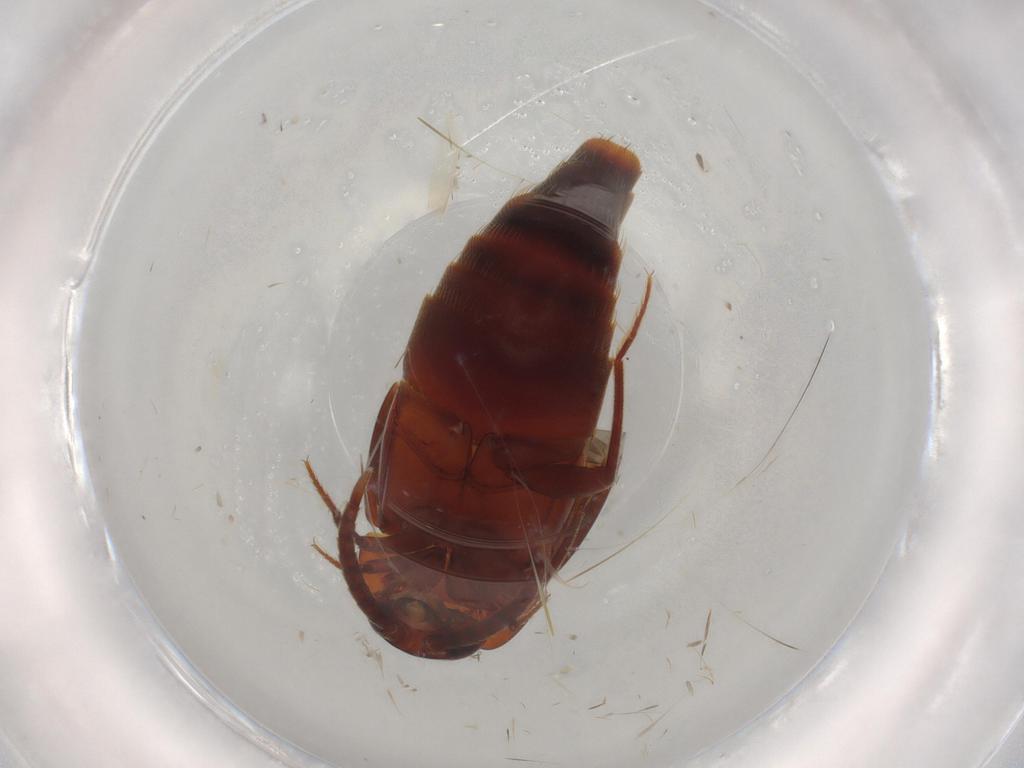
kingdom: Animalia
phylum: Arthropoda
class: Insecta
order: Coleoptera
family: Staphylinidae
